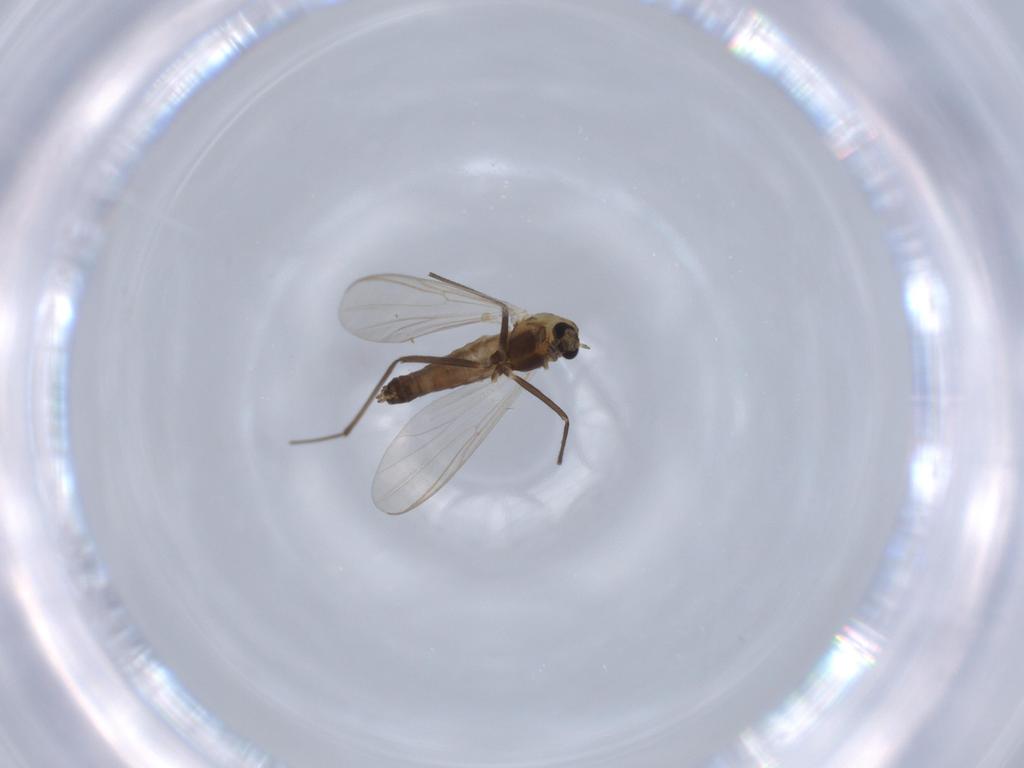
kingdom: Animalia
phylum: Arthropoda
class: Insecta
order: Diptera
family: Chironomidae
